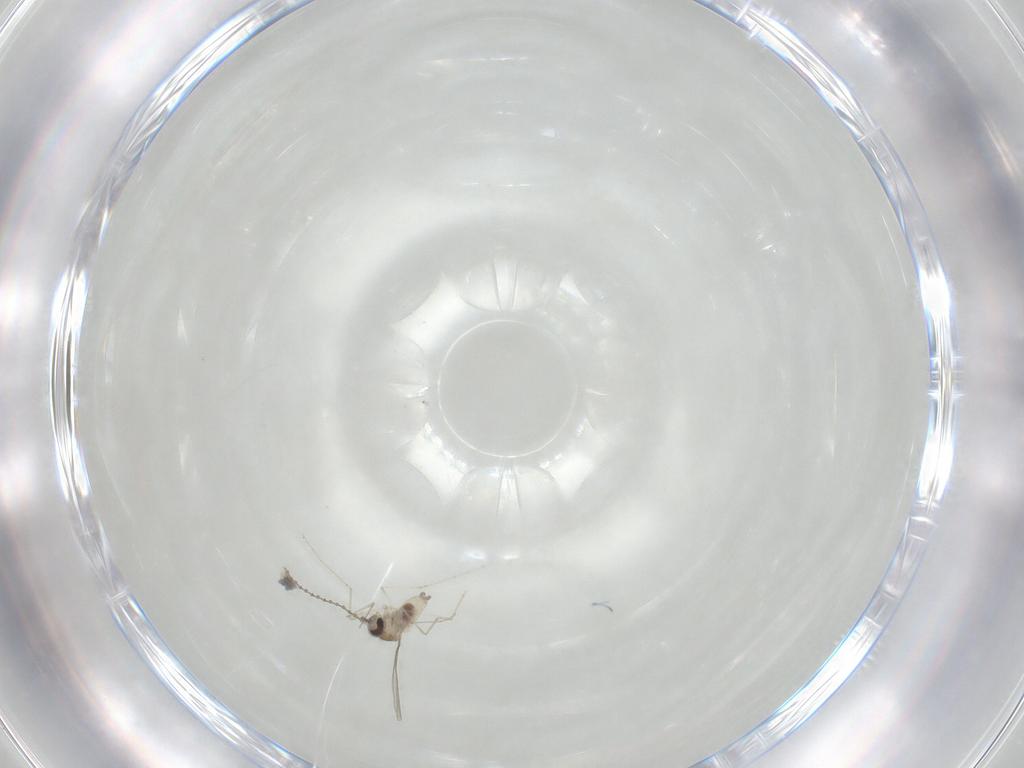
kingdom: Animalia
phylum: Arthropoda
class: Insecta
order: Diptera
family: Cecidomyiidae
